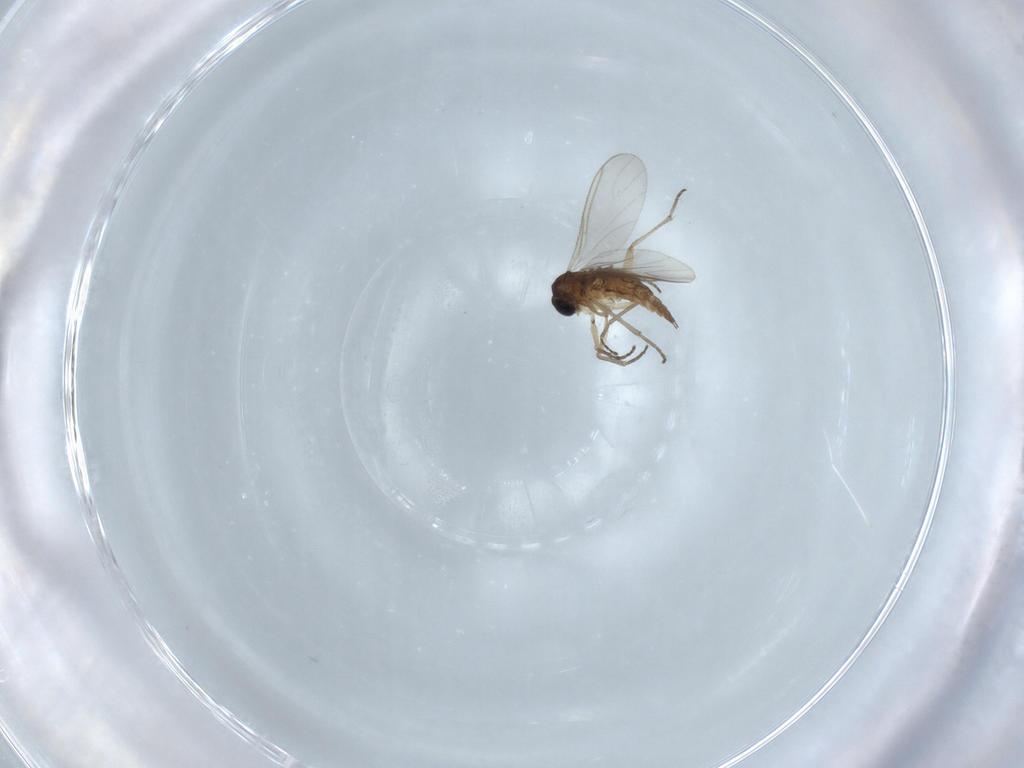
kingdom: Animalia
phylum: Arthropoda
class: Insecta
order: Diptera
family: Sciaridae
